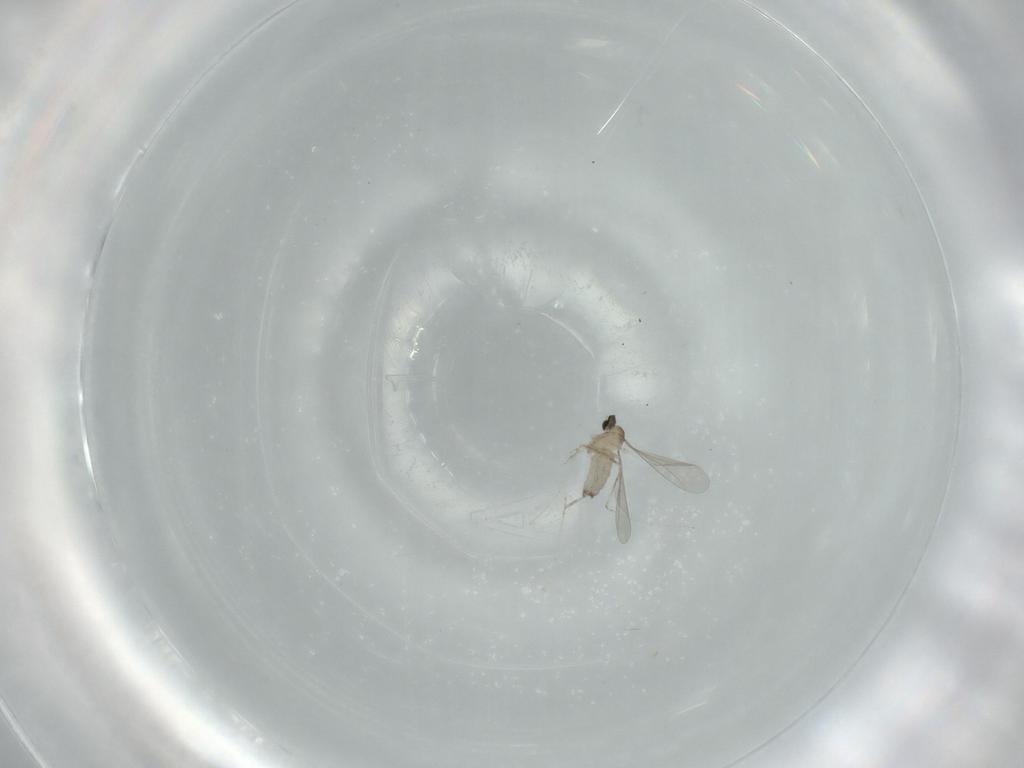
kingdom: Animalia
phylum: Arthropoda
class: Insecta
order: Diptera
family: Cecidomyiidae
